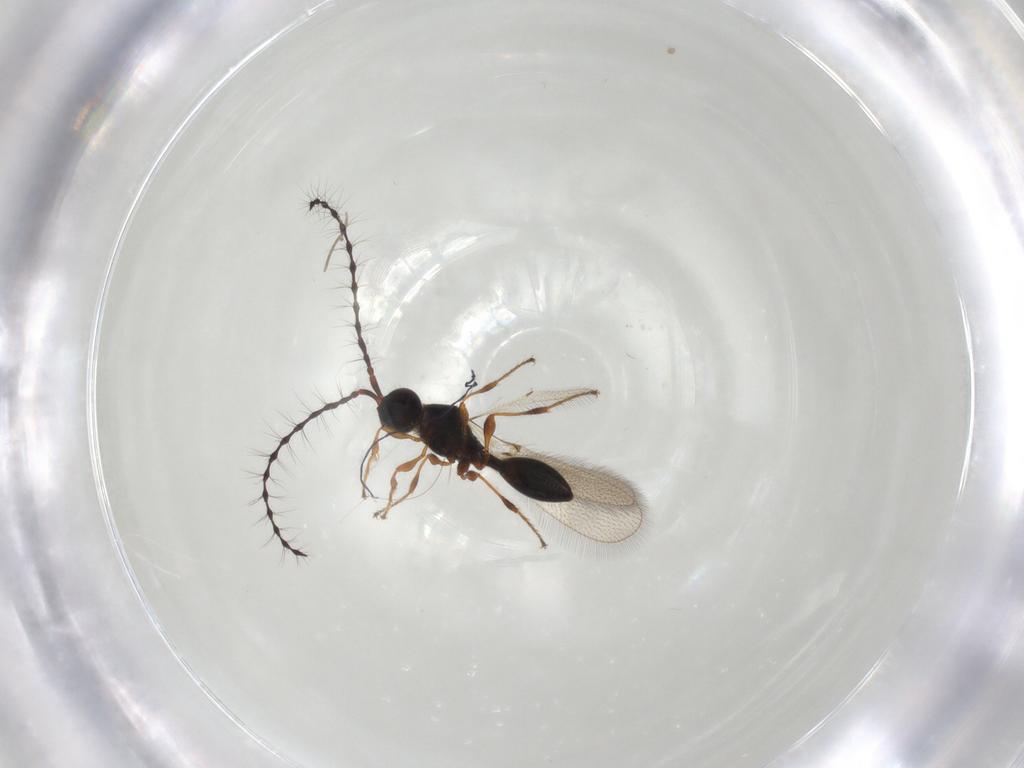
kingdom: Animalia
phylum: Arthropoda
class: Insecta
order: Hymenoptera
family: Diapriidae
